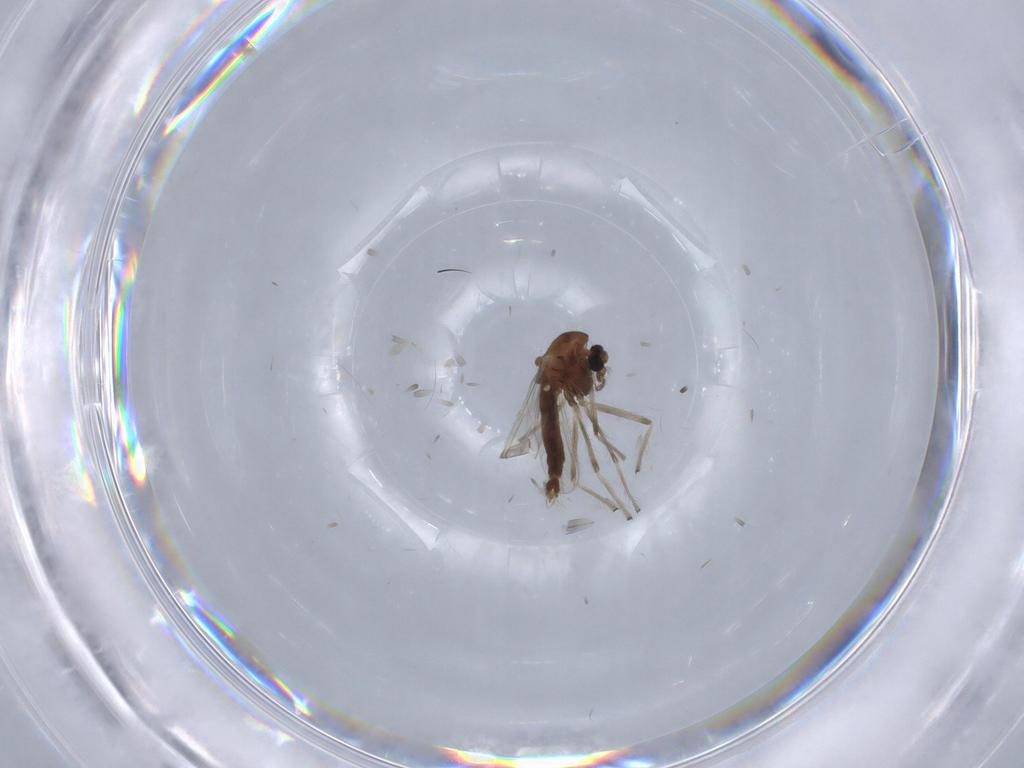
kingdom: Animalia
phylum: Arthropoda
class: Insecta
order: Diptera
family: Chironomidae
